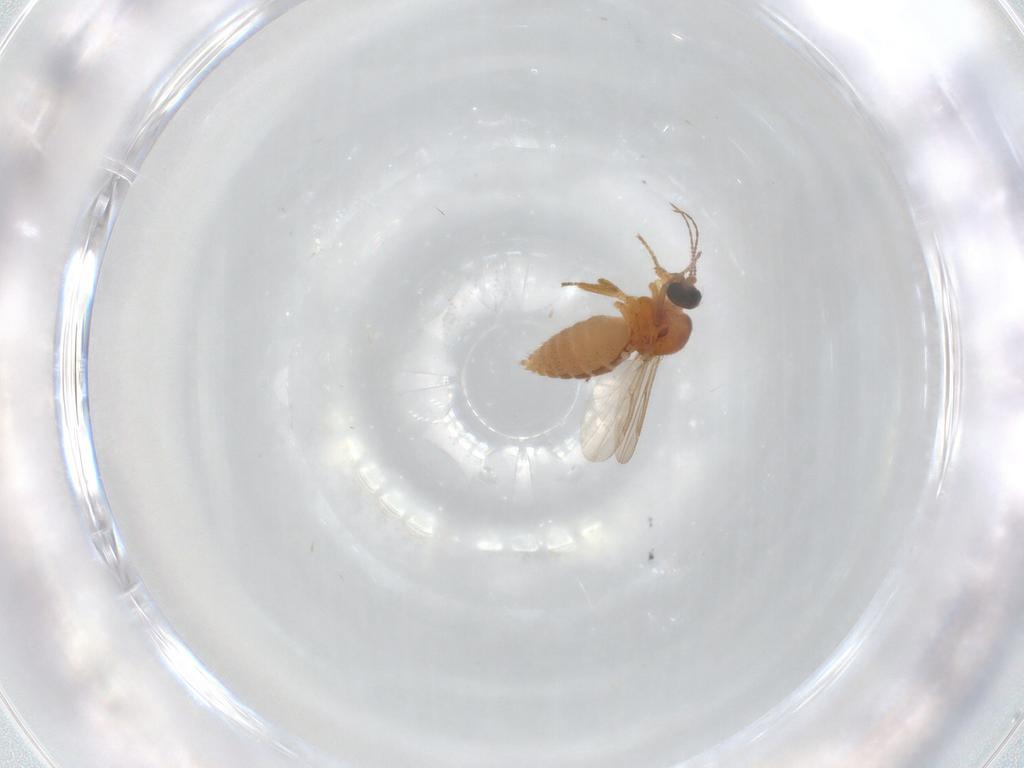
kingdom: Animalia
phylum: Arthropoda
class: Insecta
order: Diptera
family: Ceratopogonidae
